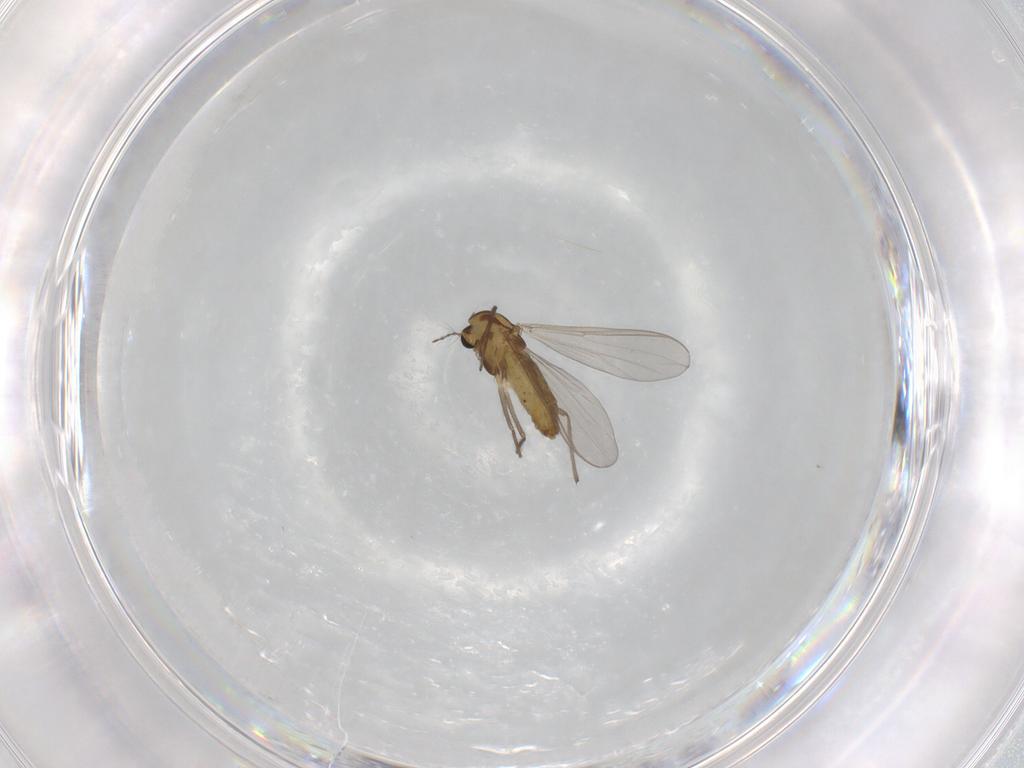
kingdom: Animalia
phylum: Arthropoda
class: Insecta
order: Diptera
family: Chironomidae
